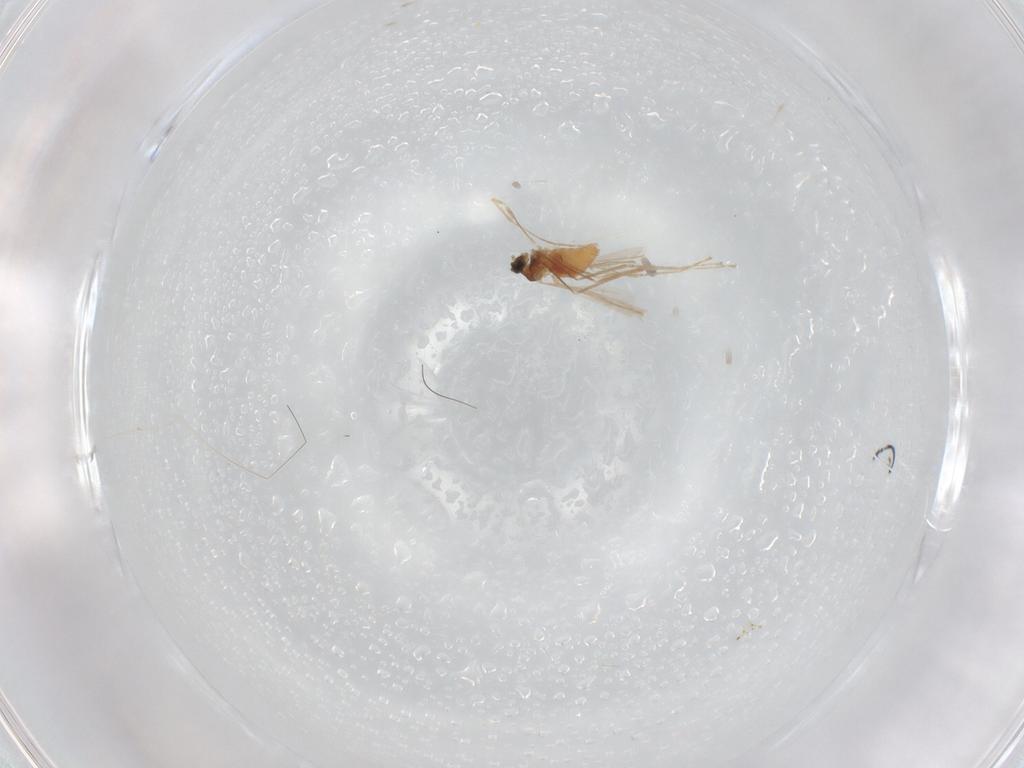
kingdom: Animalia
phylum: Arthropoda
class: Insecta
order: Diptera
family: Cecidomyiidae
